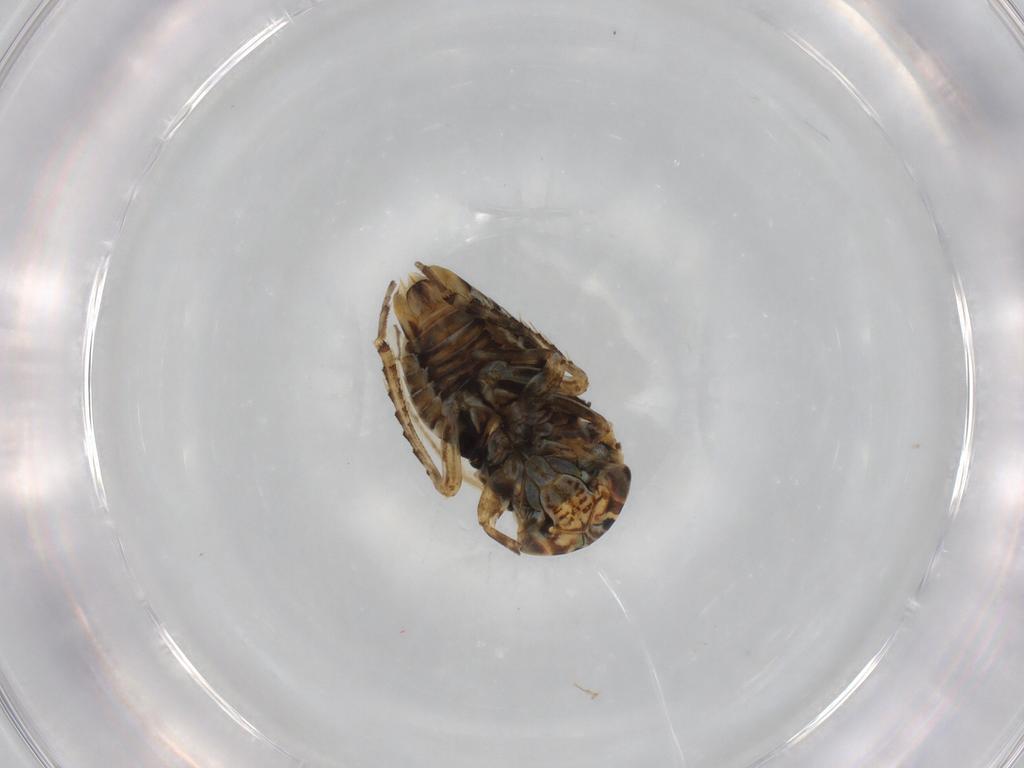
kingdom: Animalia
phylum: Arthropoda
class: Insecta
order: Hemiptera
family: Cicadellidae
